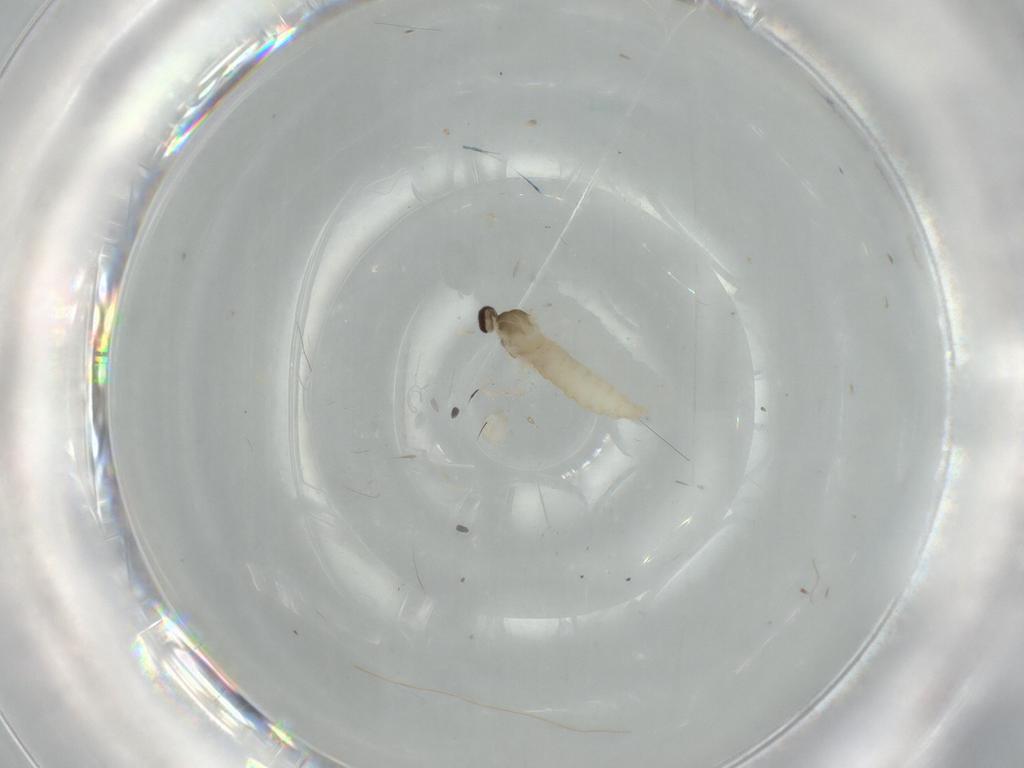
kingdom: Animalia
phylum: Arthropoda
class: Insecta
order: Diptera
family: Cecidomyiidae
